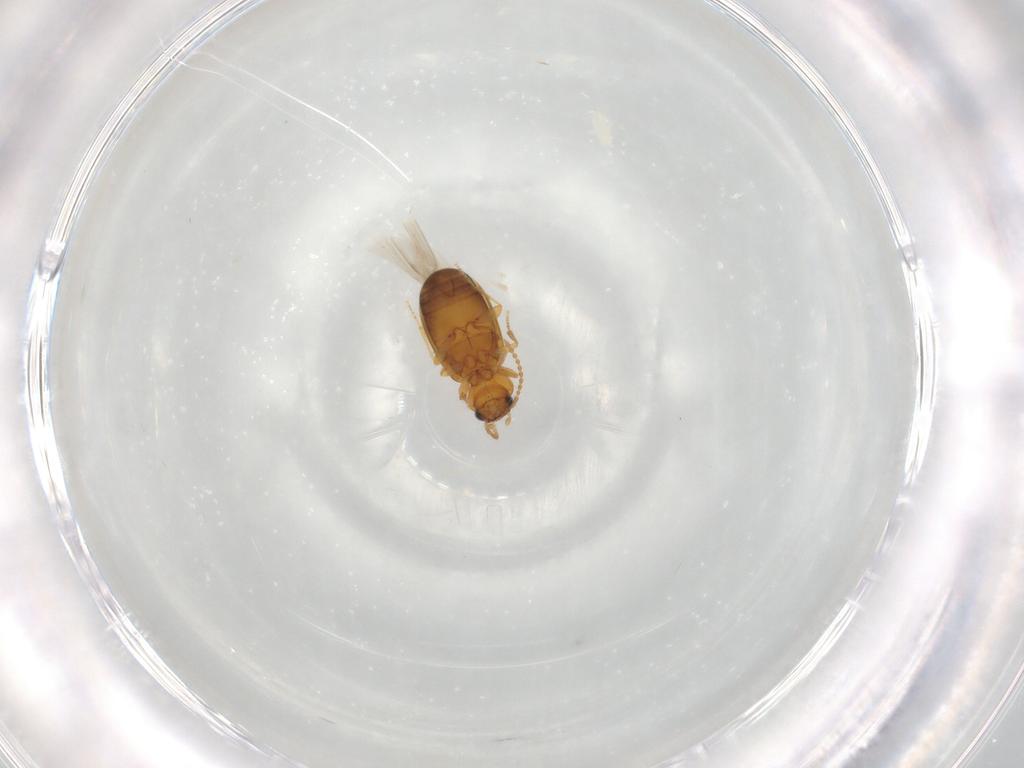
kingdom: Animalia
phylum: Arthropoda
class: Insecta
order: Coleoptera
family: Carabidae
